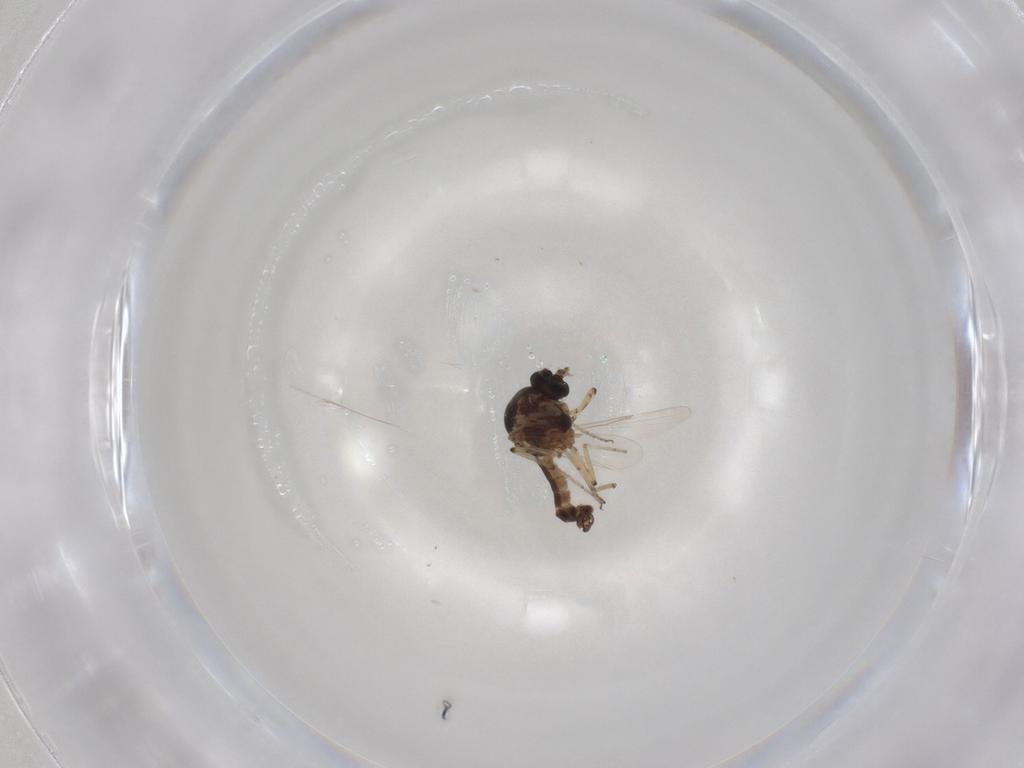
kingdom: Animalia
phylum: Arthropoda
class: Insecta
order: Diptera
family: Ceratopogonidae
